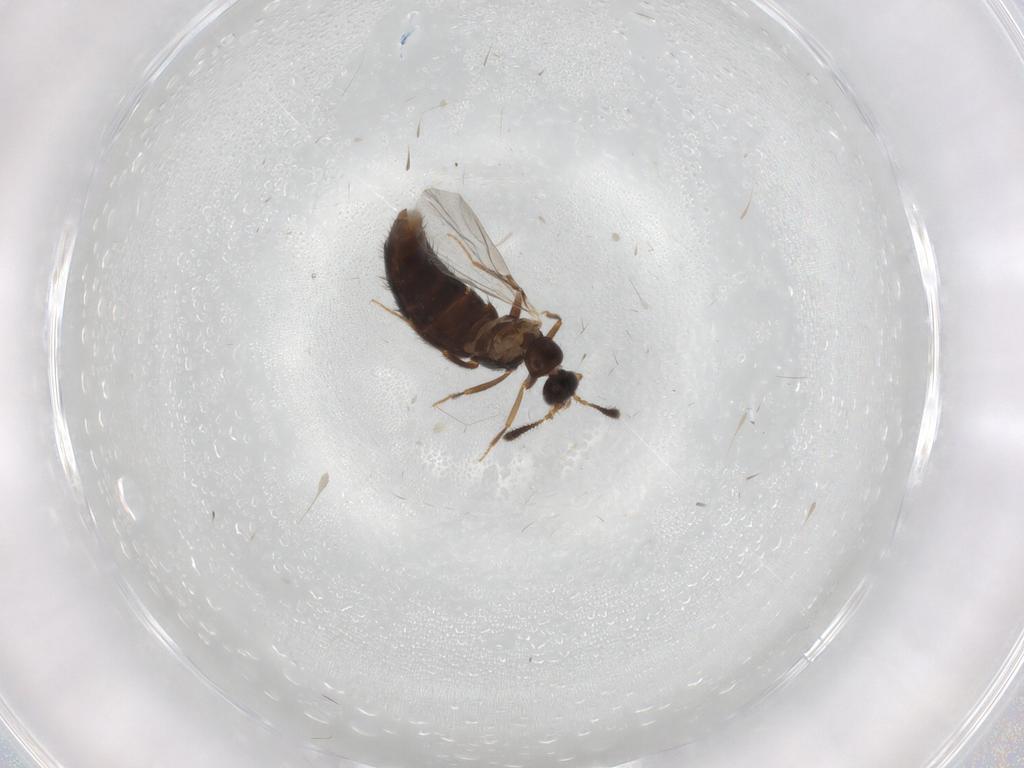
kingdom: Animalia
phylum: Arthropoda
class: Insecta
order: Coleoptera
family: Staphylinidae
